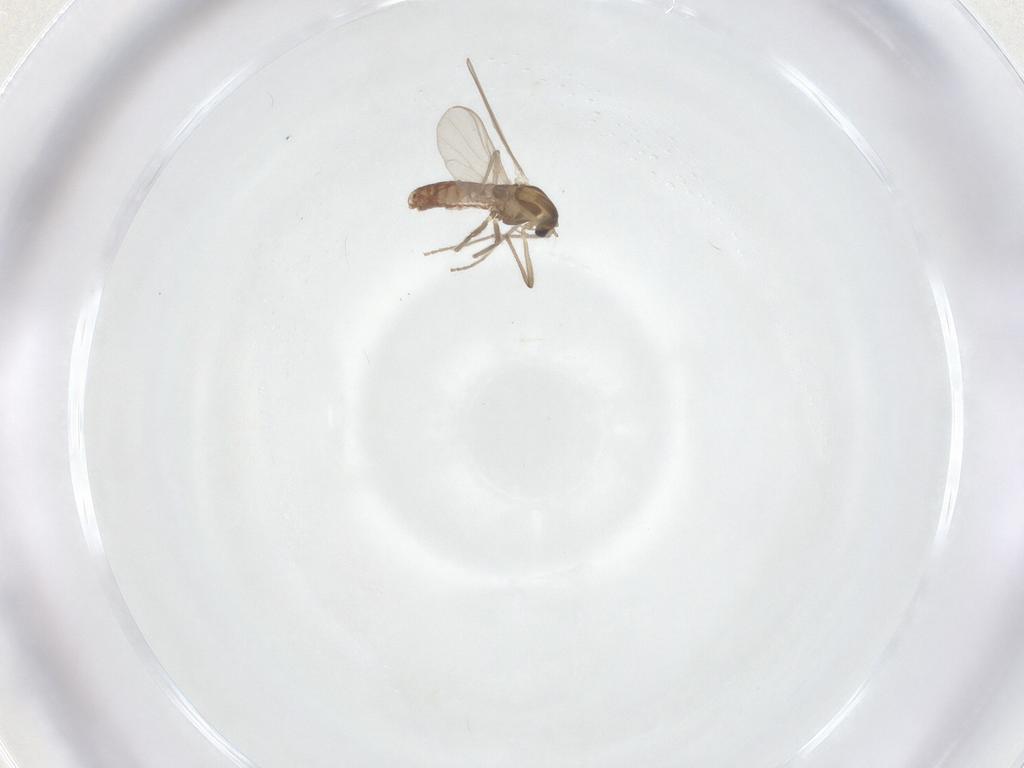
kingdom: Animalia
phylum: Arthropoda
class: Insecta
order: Diptera
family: Chironomidae
